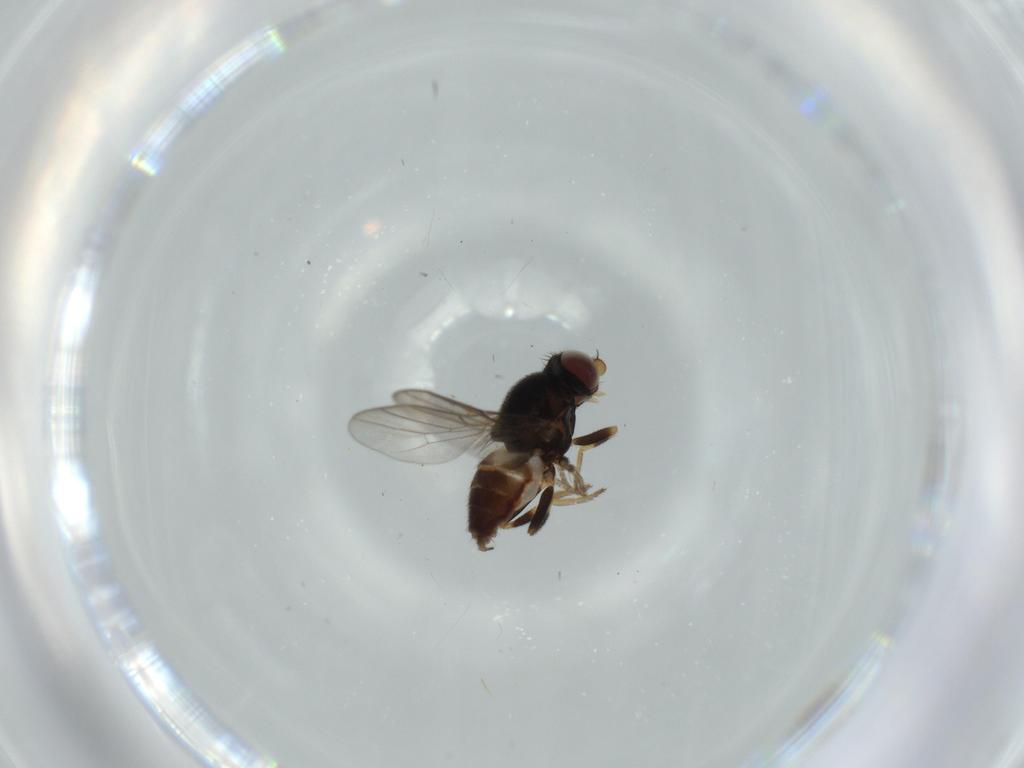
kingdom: Animalia
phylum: Arthropoda
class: Insecta
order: Diptera
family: Chloropidae
